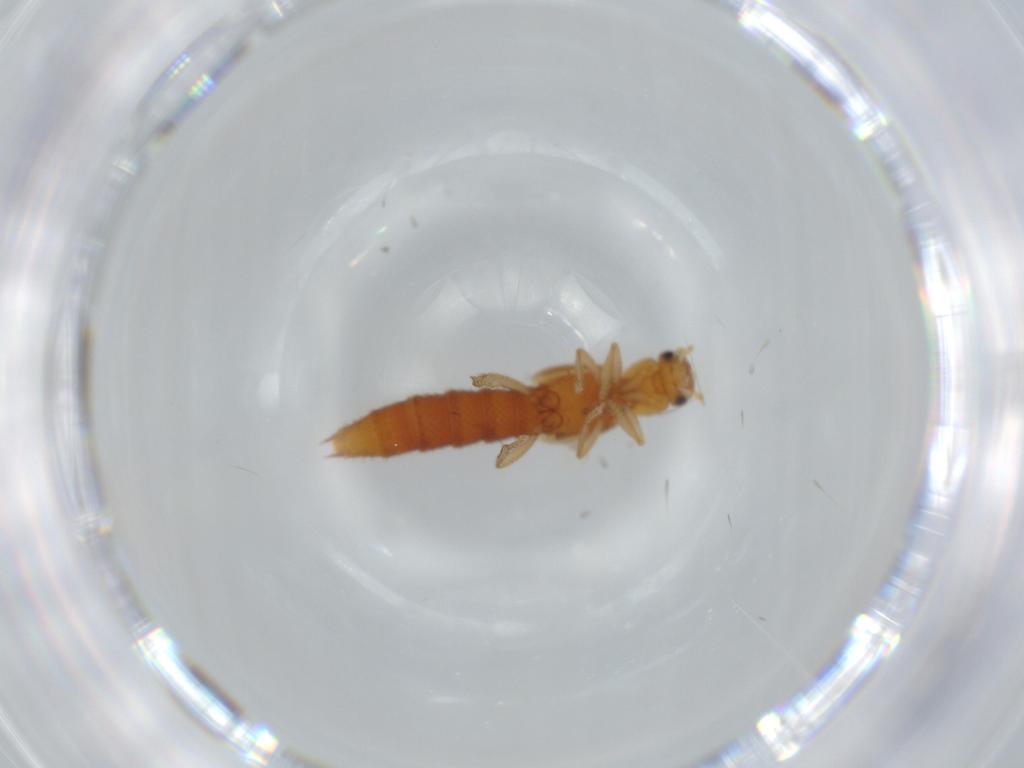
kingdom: Animalia
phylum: Arthropoda
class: Insecta
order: Coleoptera
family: Staphylinidae
